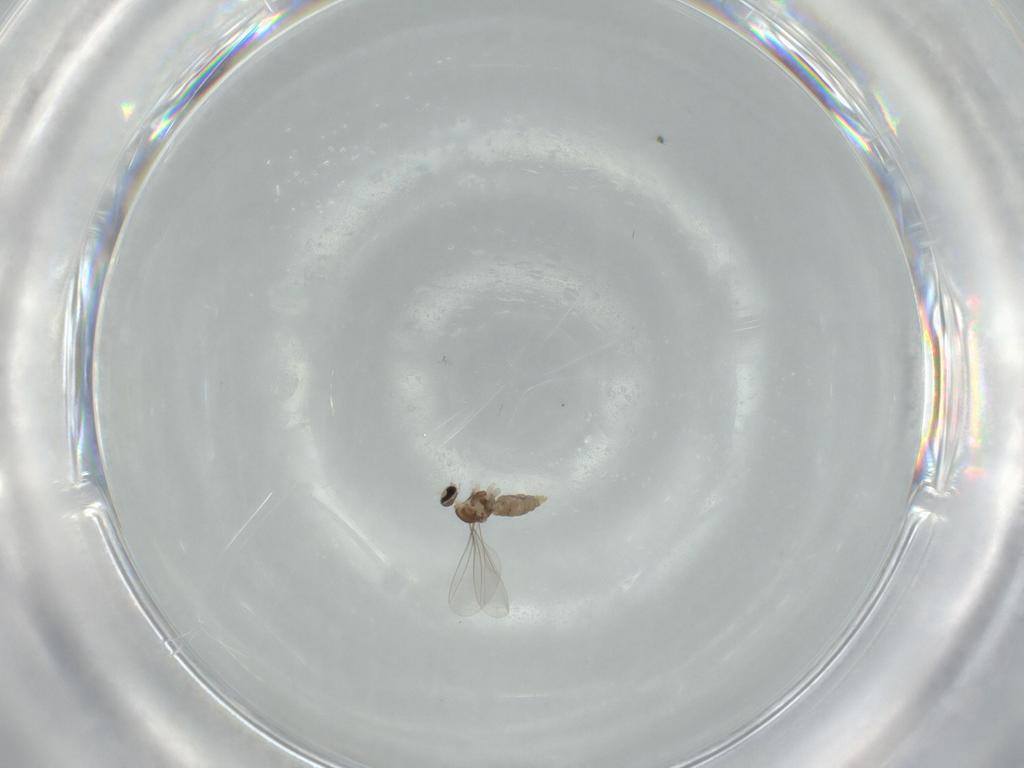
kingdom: Animalia
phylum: Arthropoda
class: Insecta
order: Diptera
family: Cecidomyiidae
